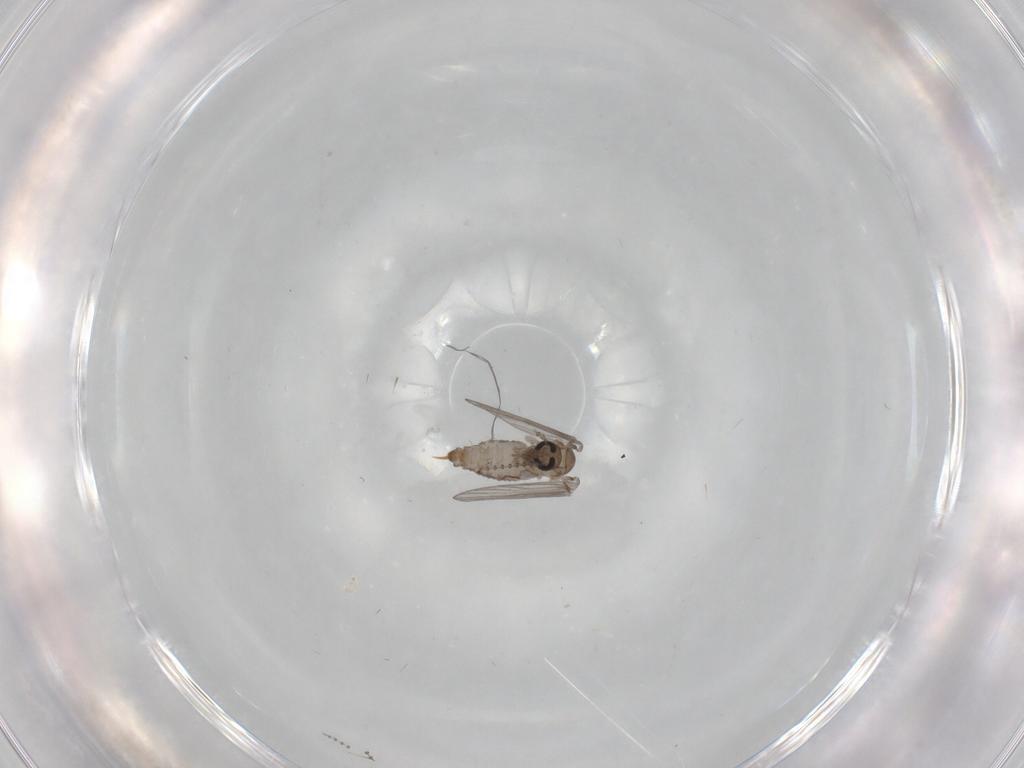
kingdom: Animalia
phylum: Arthropoda
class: Insecta
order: Diptera
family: Psychodidae
